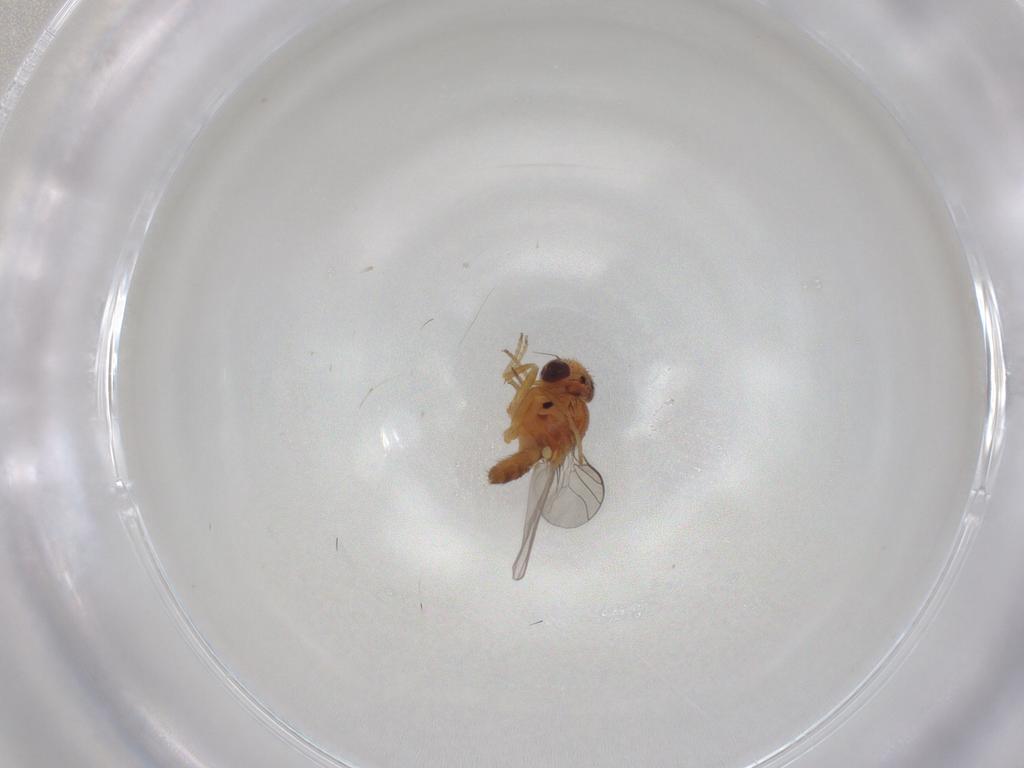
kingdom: Animalia
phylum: Arthropoda
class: Insecta
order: Diptera
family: Chloropidae
